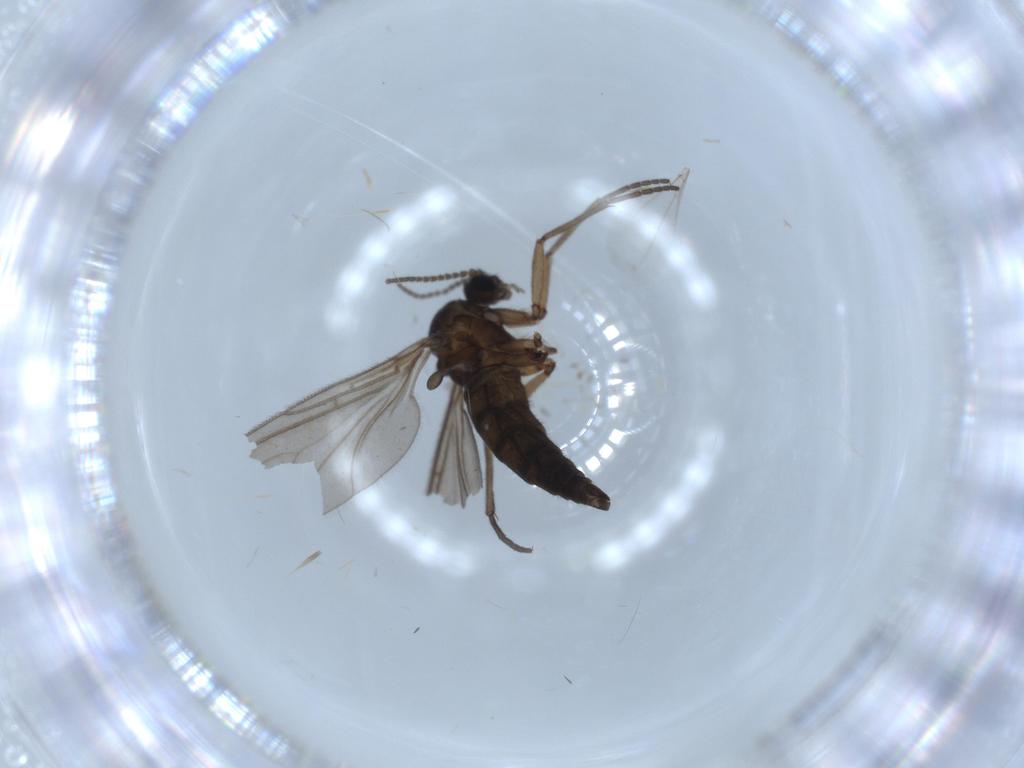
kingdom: Animalia
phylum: Arthropoda
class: Insecta
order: Diptera
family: Sciaridae
